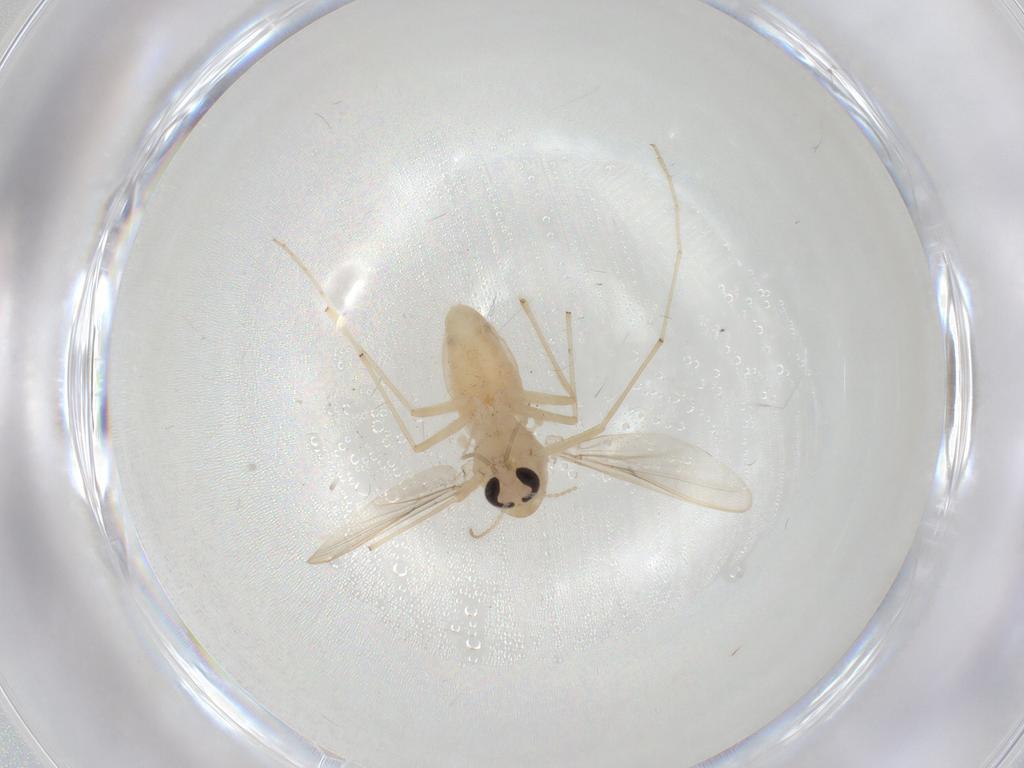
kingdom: Animalia
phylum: Arthropoda
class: Insecta
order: Diptera
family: Chironomidae
